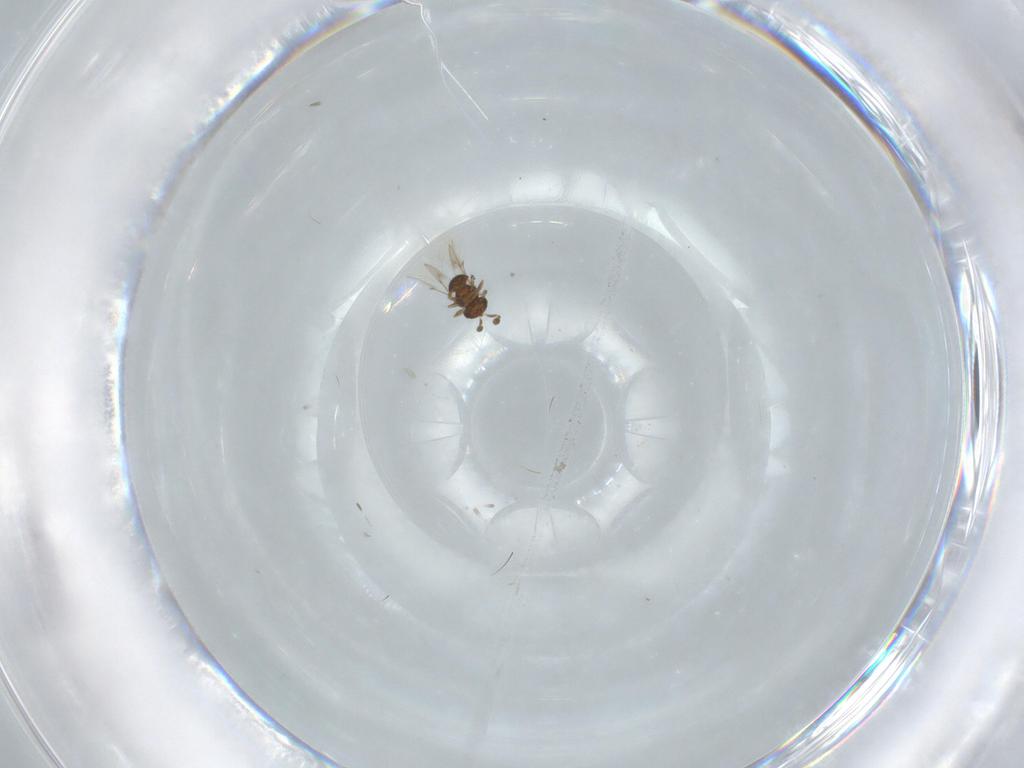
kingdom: Animalia
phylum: Arthropoda
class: Insecta
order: Hymenoptera
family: Scelionidae
